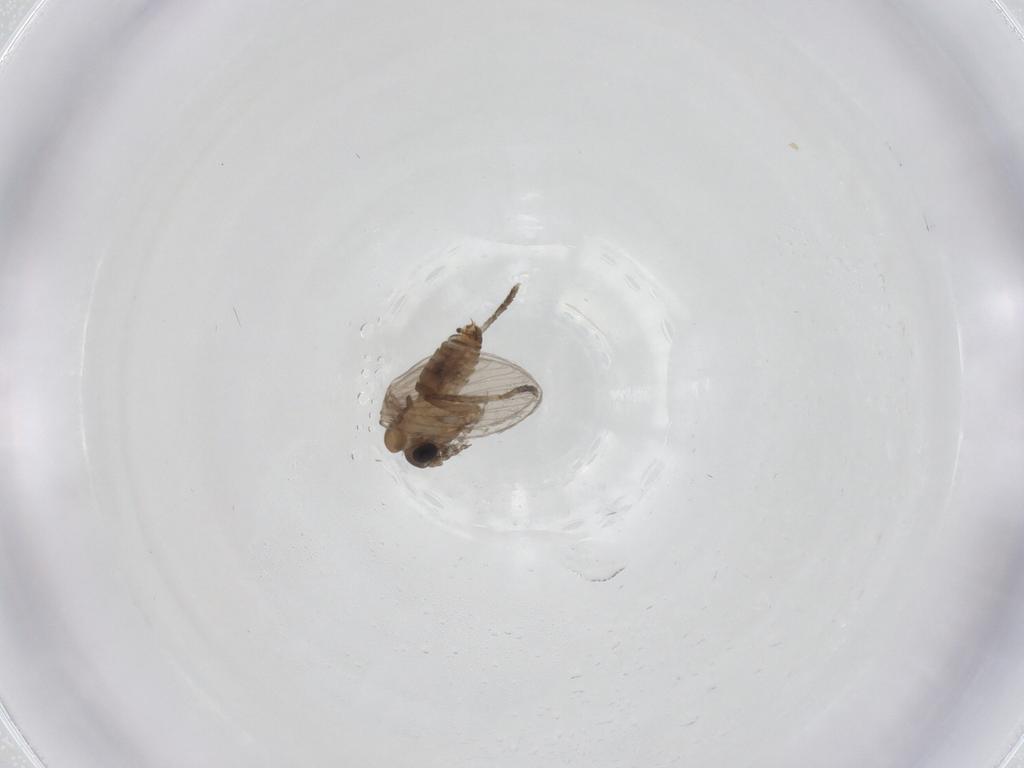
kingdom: Animalia
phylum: Arthropoda
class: Insecta
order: Diptera
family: Psychodidae
